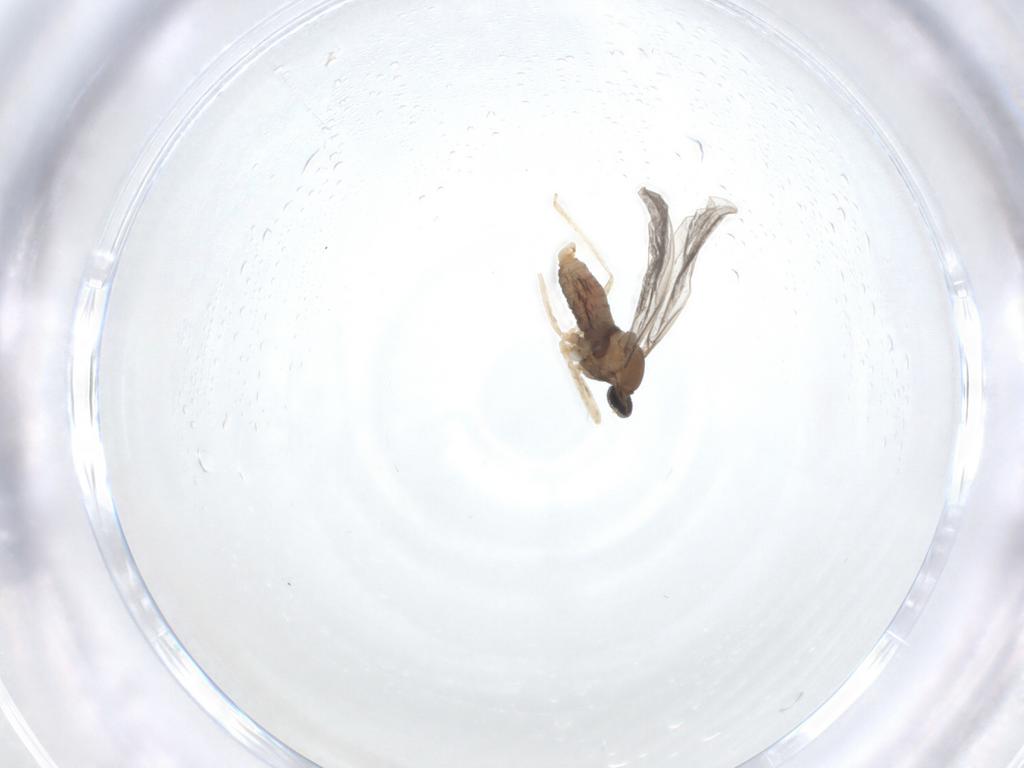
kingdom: Animalia
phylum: Arthropoda
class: Insecta
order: Diptera
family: Cecidomyiidae
